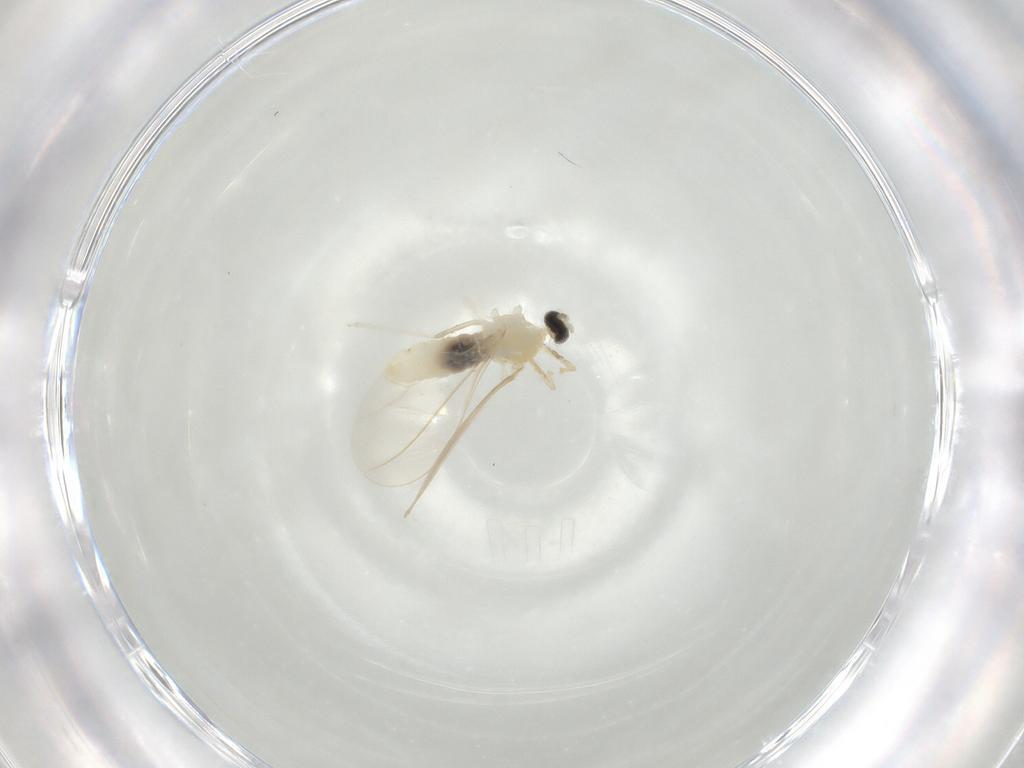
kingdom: Animalia
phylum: Arthropoda
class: Insecta
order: Diptera
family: Cecidomyiidae
